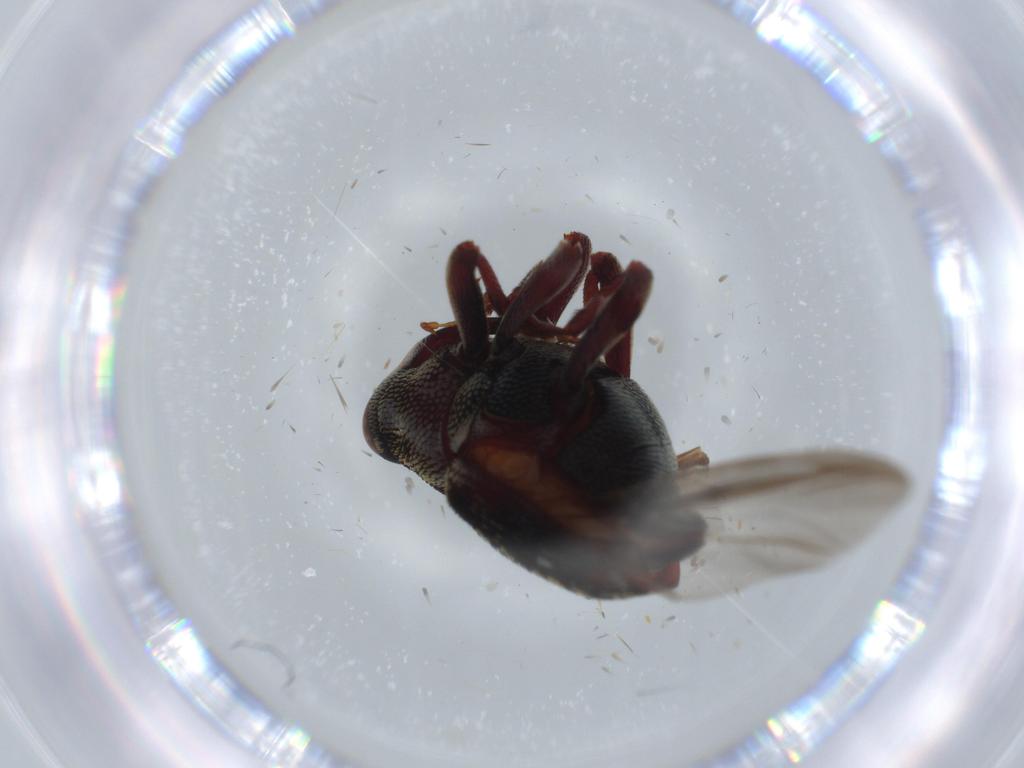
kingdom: Animalia
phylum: Arthropoda
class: Insecta
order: Coleoptera
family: Curculionidae
